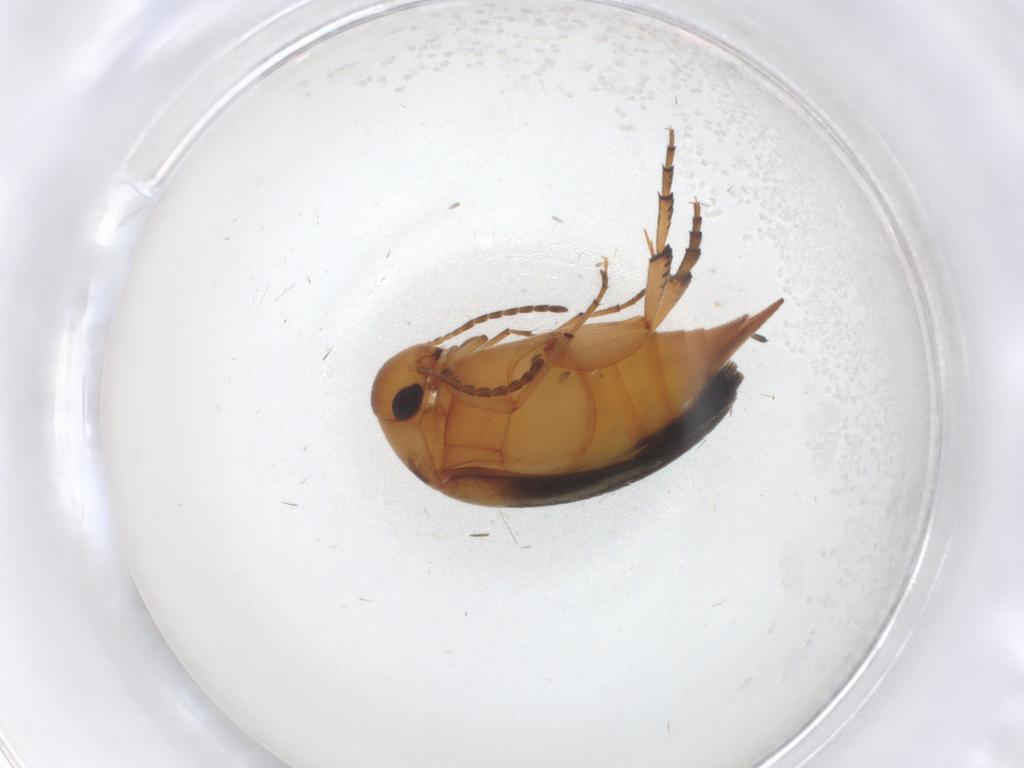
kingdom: Animalia
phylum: Arthropoda
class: Insecta
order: Coleoptera
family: Mordellidae
